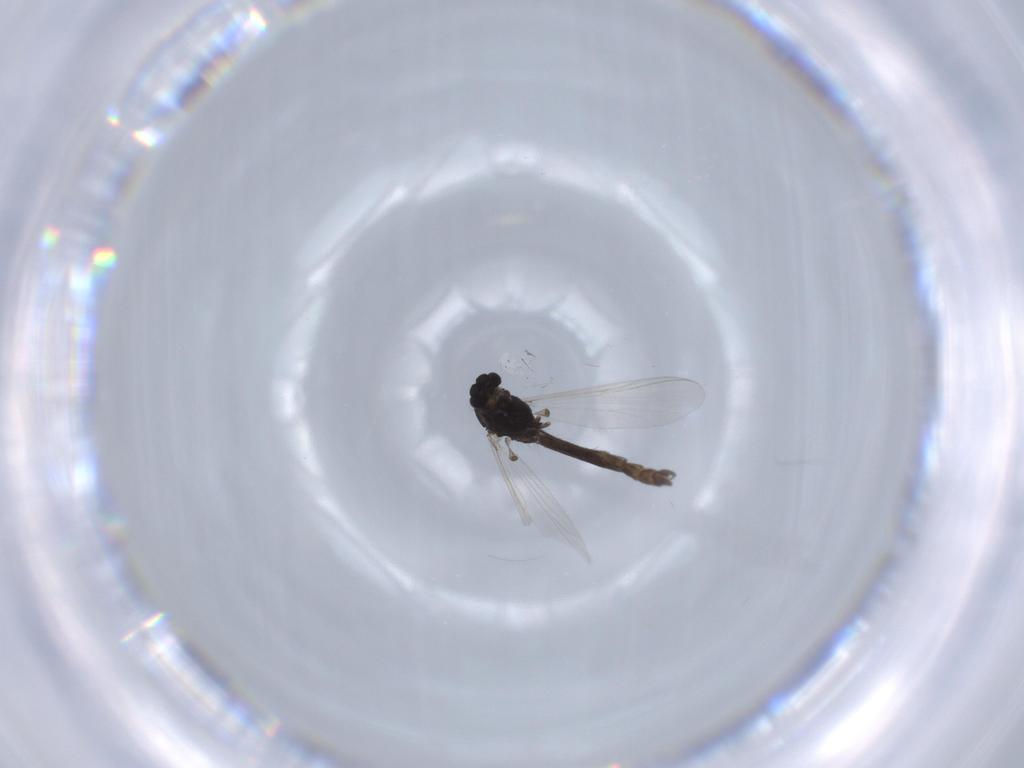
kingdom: Animalia
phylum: Arthropoda
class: Insecta
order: Diptera
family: Chironomidae
